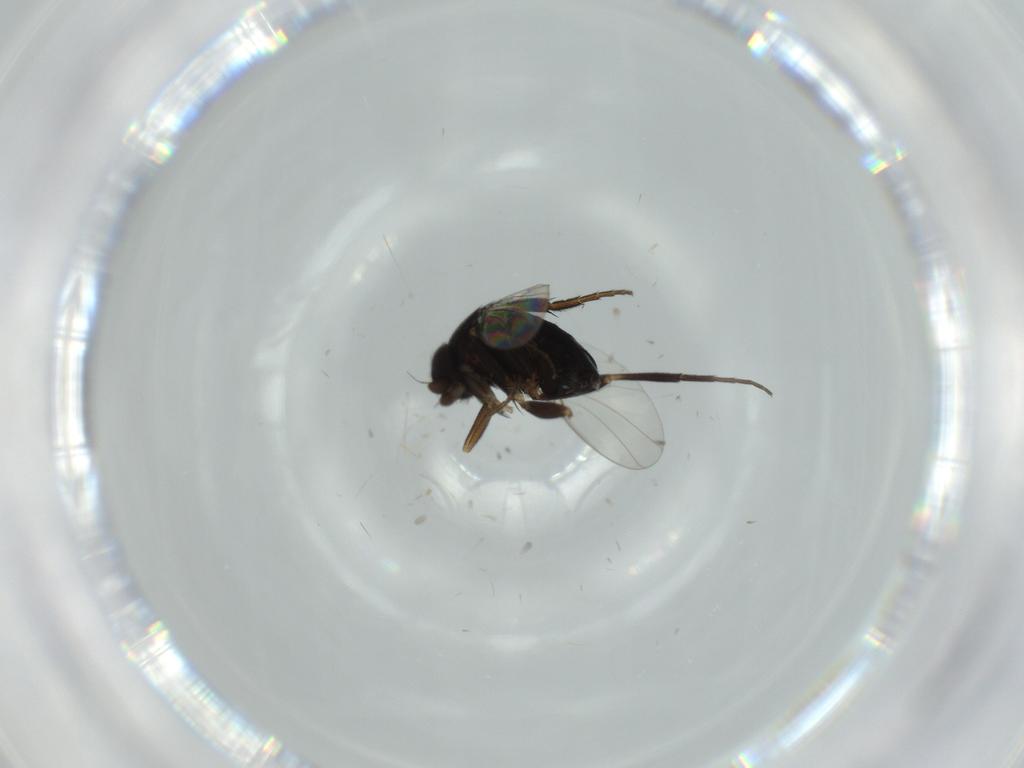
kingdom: Animalia
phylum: Arthropoda
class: Insecta
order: Diptera
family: Phoridae
